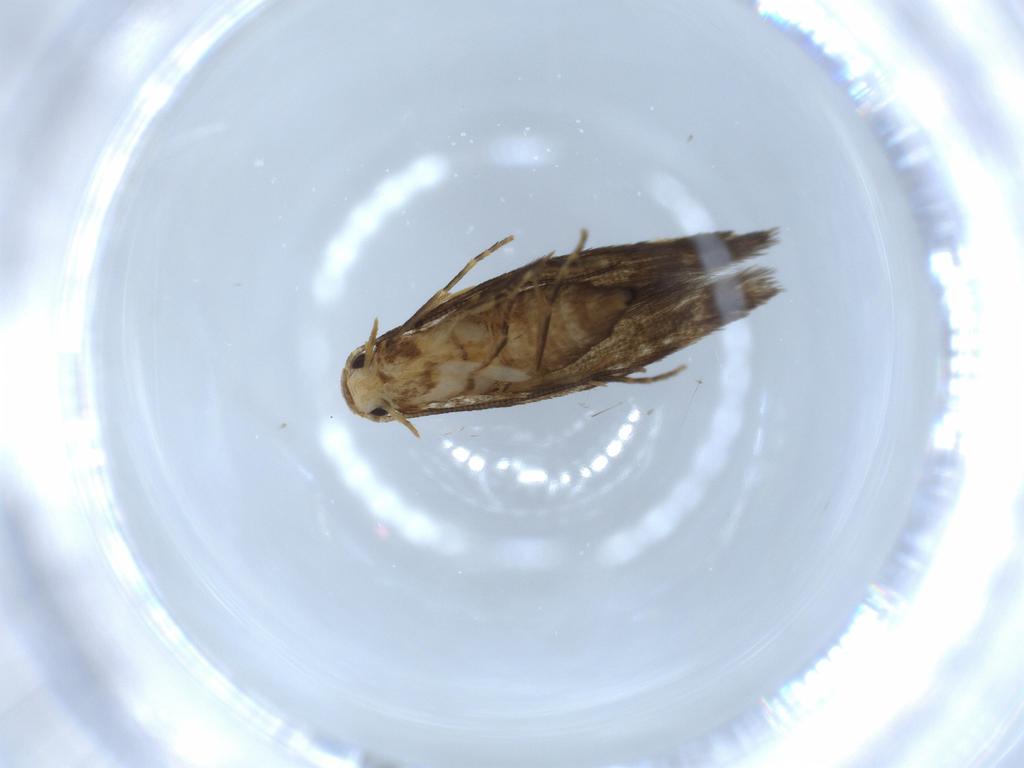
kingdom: Animalia
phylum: Arthropoda
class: Insecta
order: Lepidoptera
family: Tineidae
